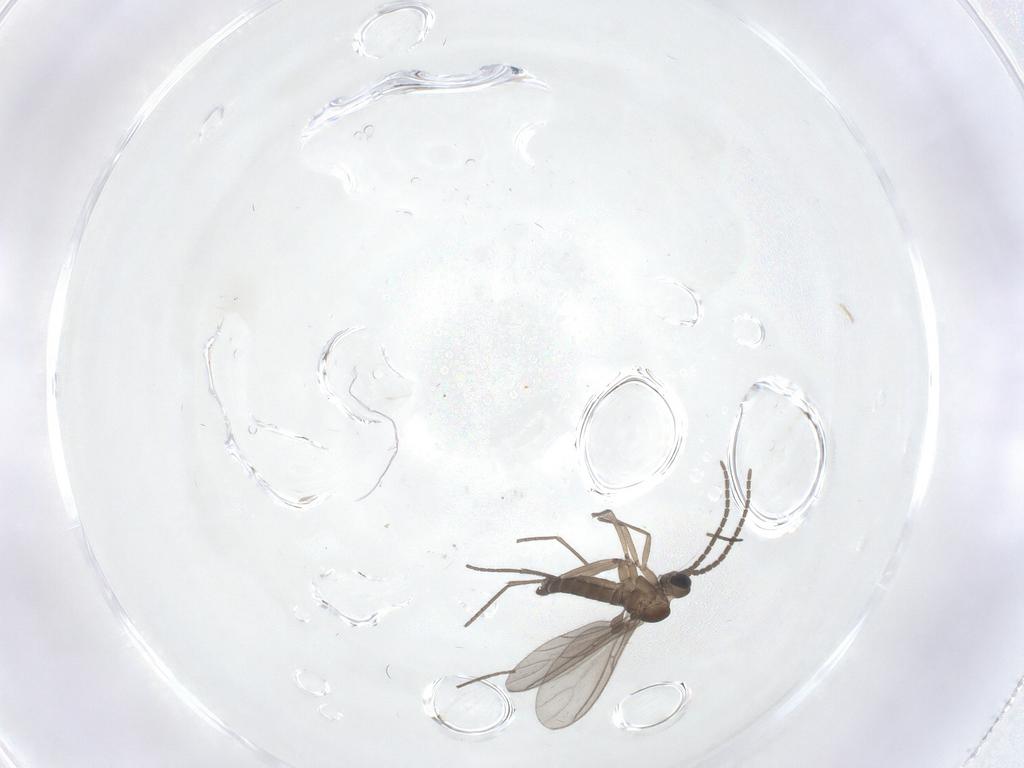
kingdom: Animalia
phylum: Arthropoda
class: Insecta
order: Diptera
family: Sciaridae
